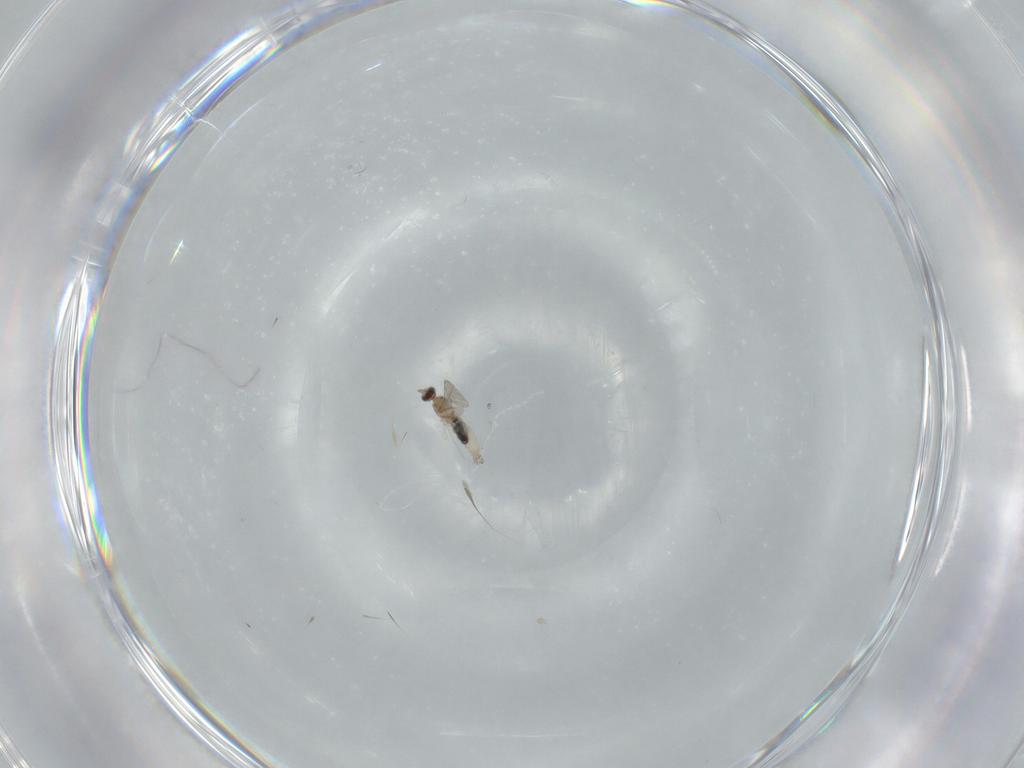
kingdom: Animalia
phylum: Arthropoda
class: Insecta
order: Diptera
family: Cecidomyiidae
